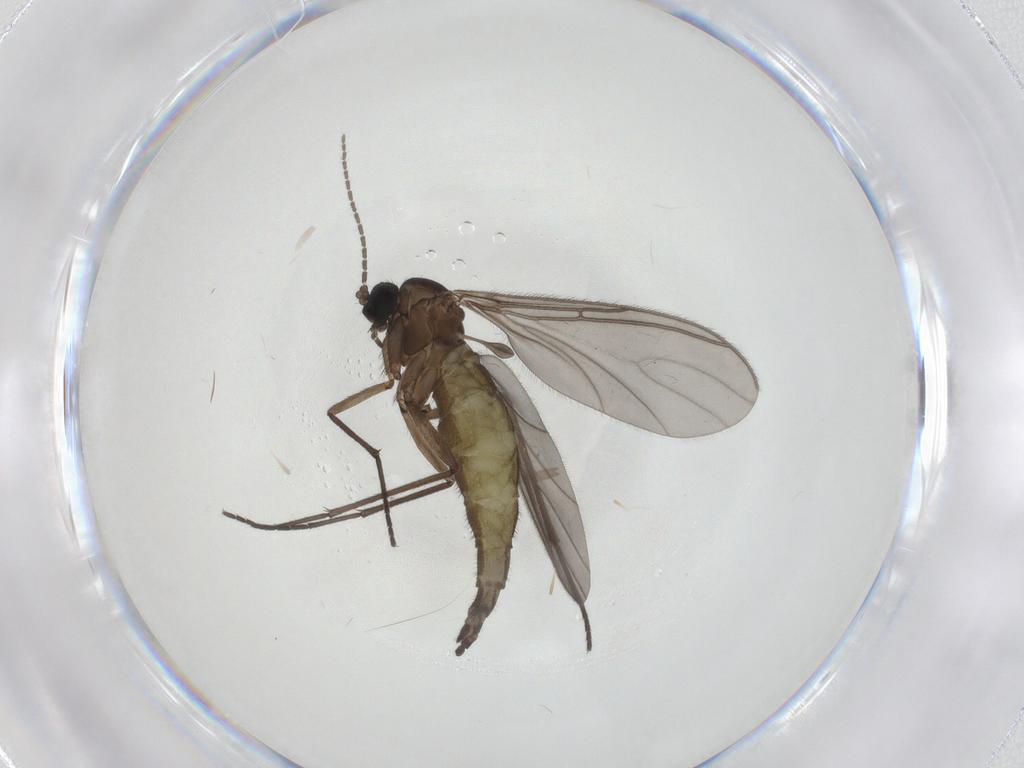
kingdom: Animalia
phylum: Arthropoda
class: Insecta
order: Diptera
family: Sciaridae
